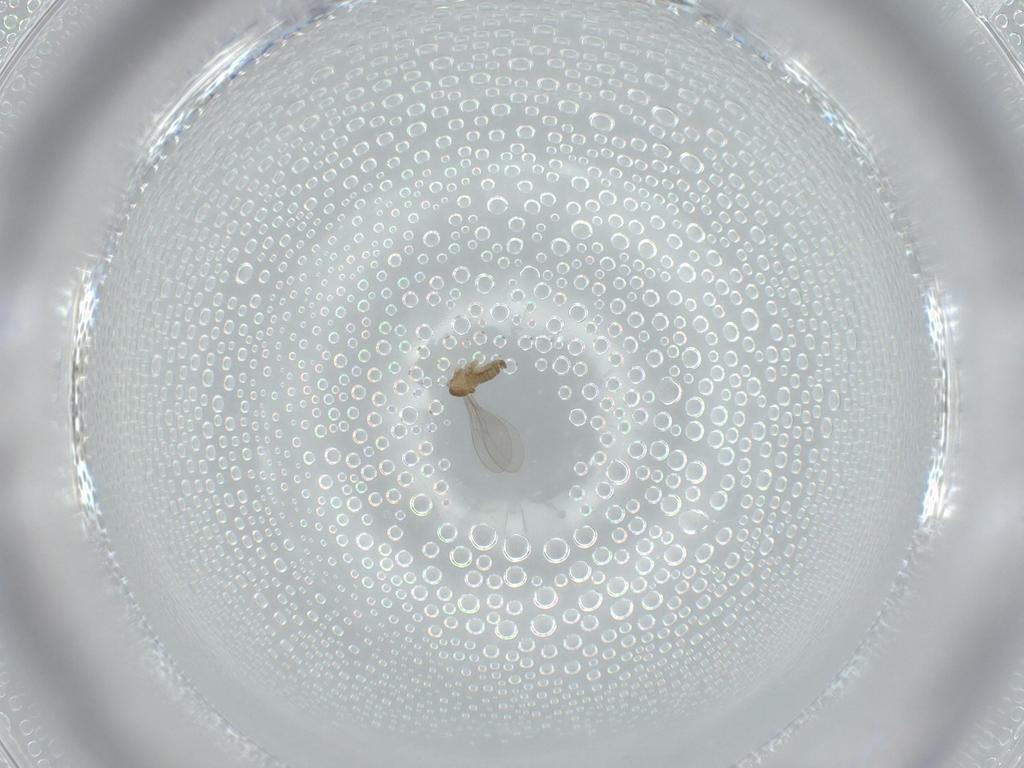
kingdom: Animalia
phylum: Arthropoda
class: Insecta
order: Diptera
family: Cecidomyiidae
